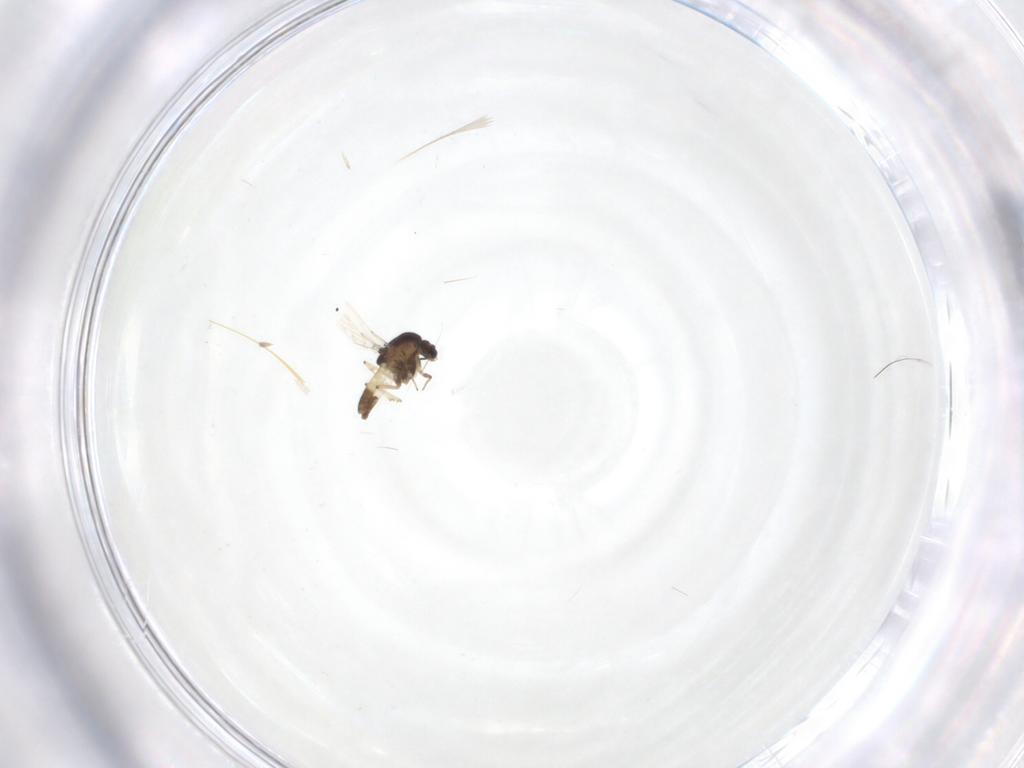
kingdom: Animalia
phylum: Arthropoda
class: Insecta
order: Diptera
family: Chironomidae
